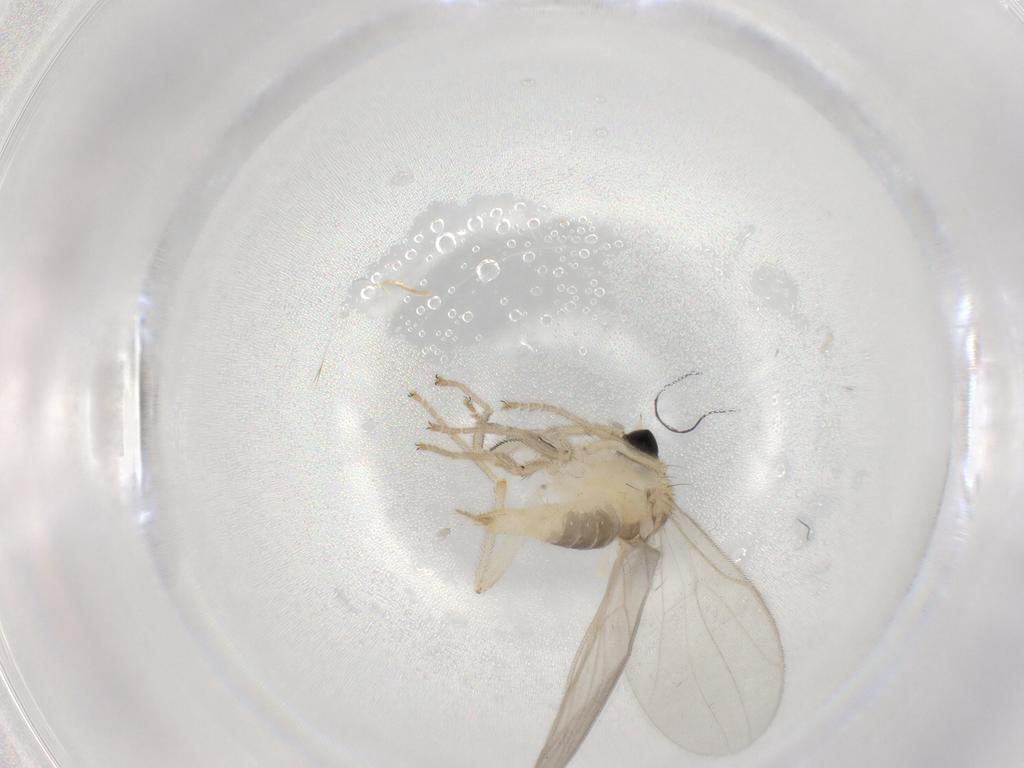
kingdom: Animalia
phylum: Arthropoda
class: Insecta
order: Diptera
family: Hybotidae
